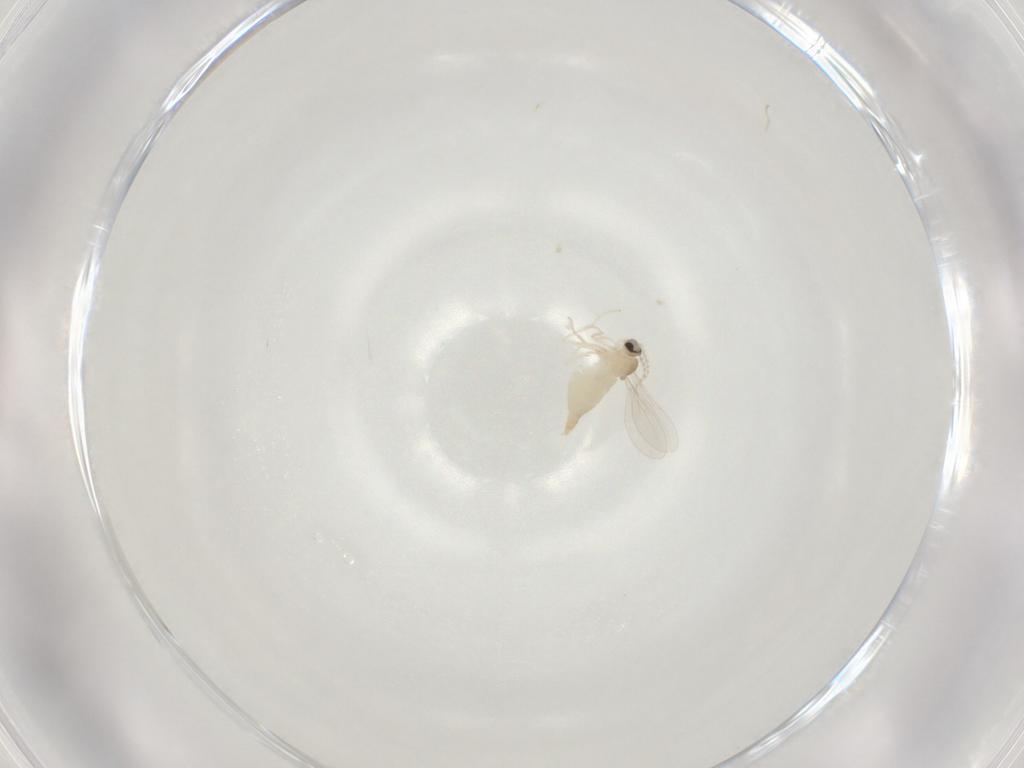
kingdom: Animalia
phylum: Arthropoda
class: Insecta
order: Diptera
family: Cecidomyiidae
